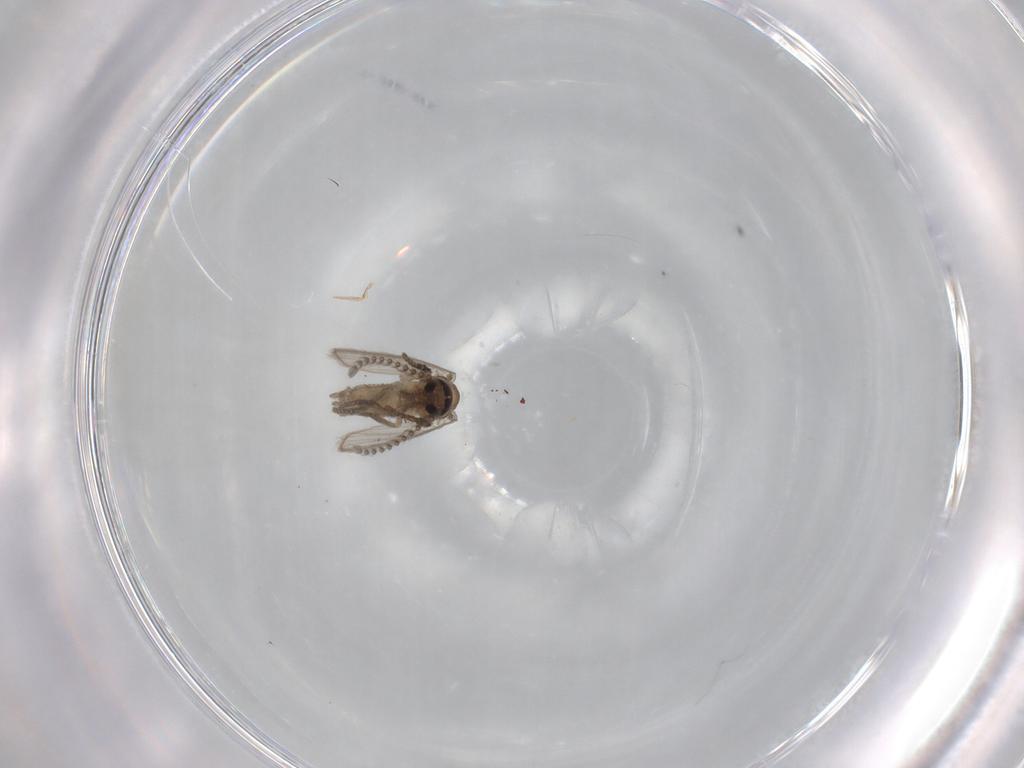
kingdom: Animalia
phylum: Arthropoda
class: Insecta
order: Diptera
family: Psychodidae
